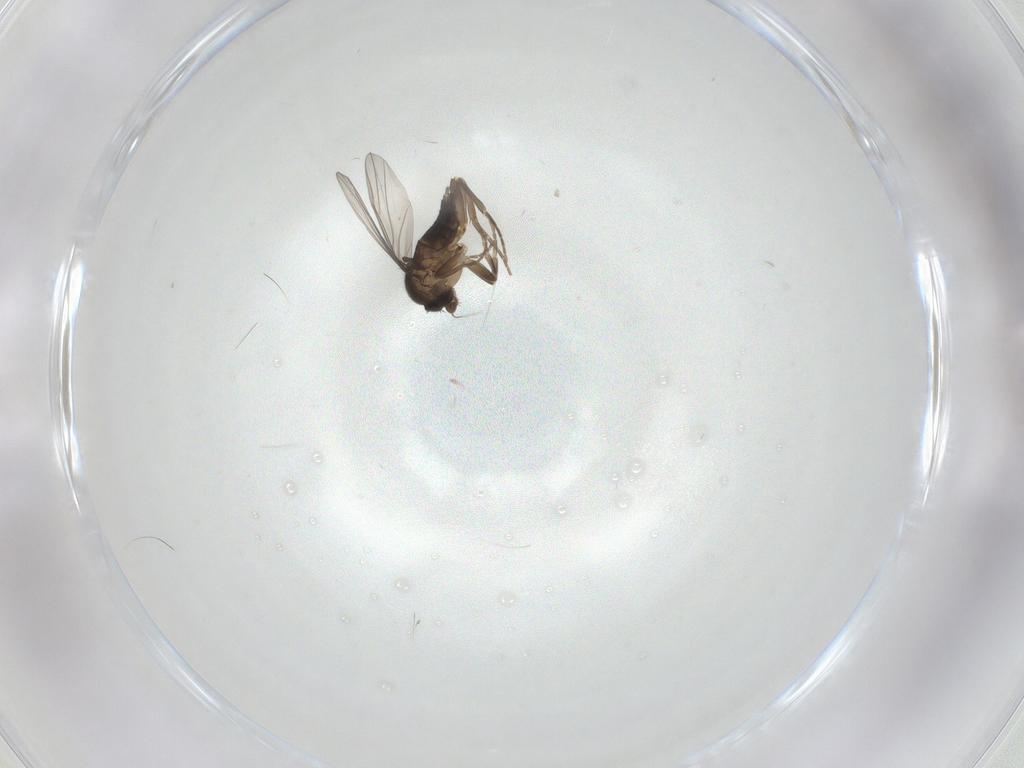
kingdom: Animalia
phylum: Arthropoda
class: Insecta
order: Diptera
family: Phoridae
